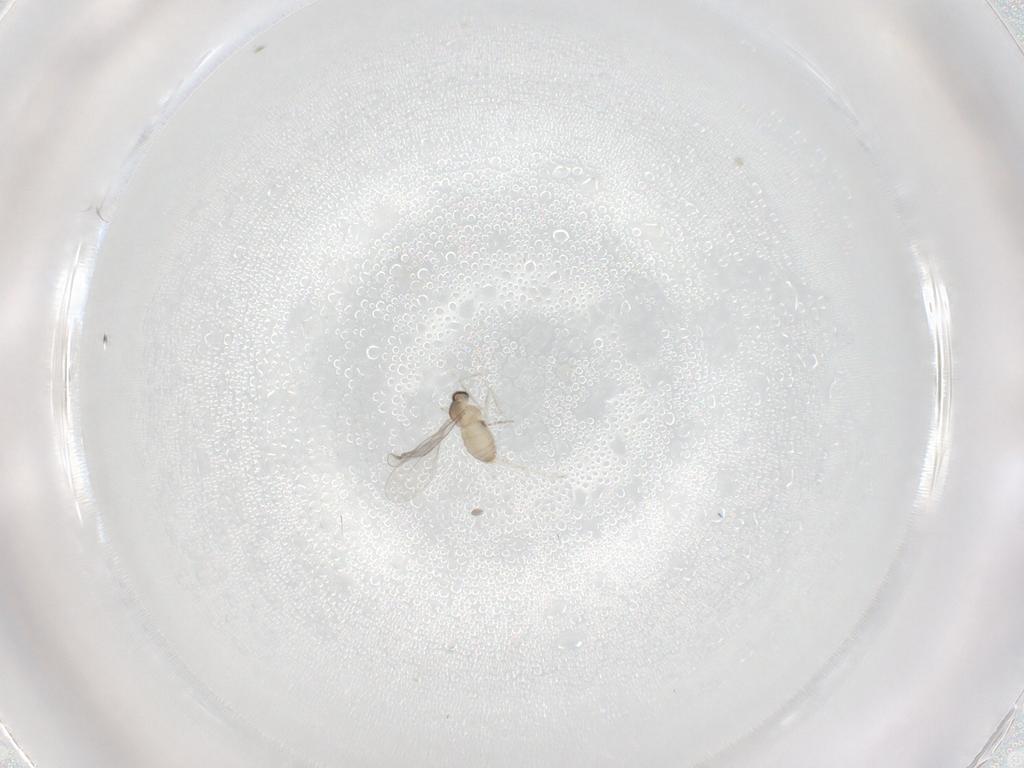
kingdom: Animalia
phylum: Arthropoda
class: Insecta
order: Diptera
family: Cecidomyiidae
